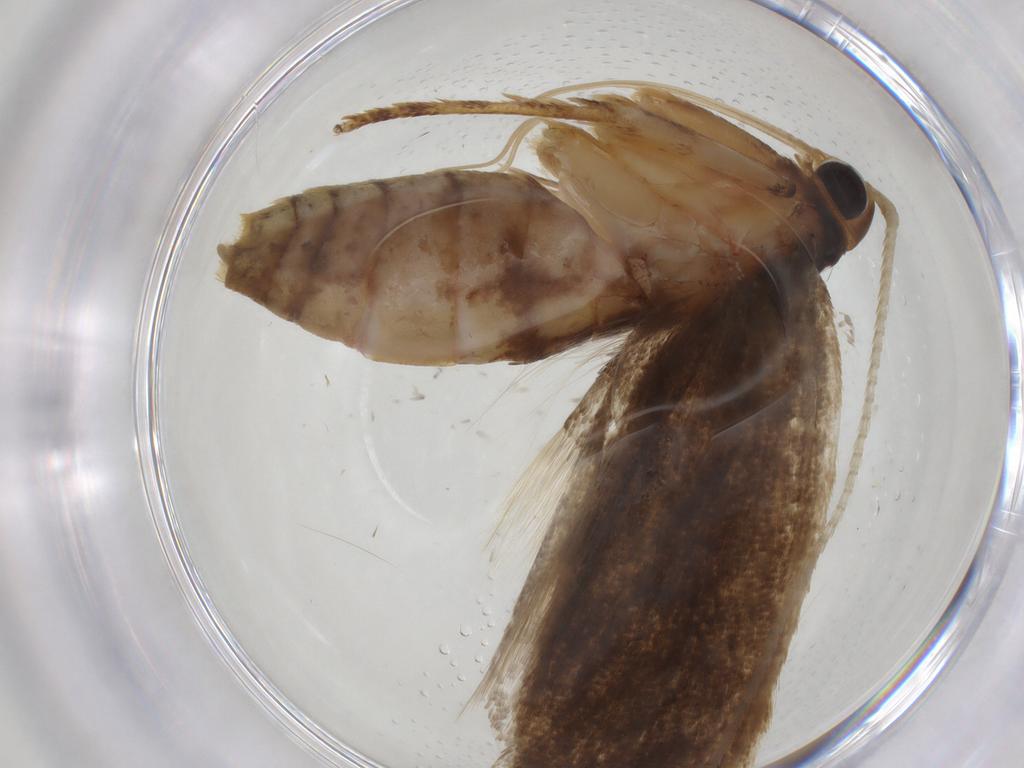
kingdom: Animalia
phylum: Arthropoda
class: Insecta
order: Lepidoptera
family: Lecithoceridae
